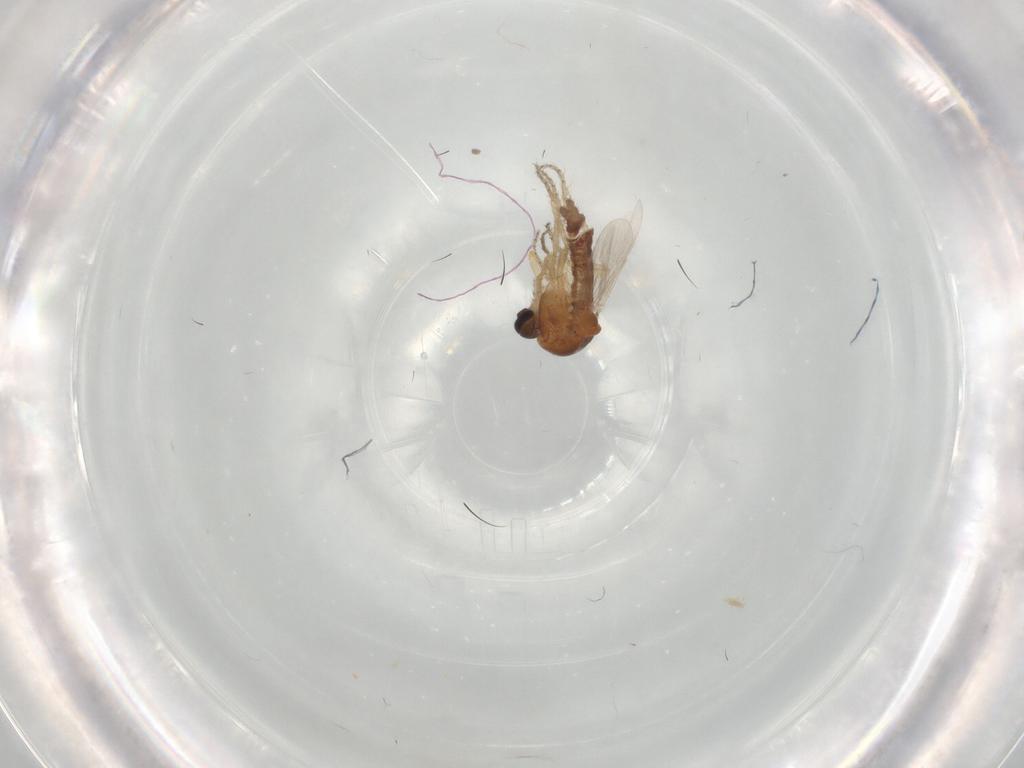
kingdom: Animalia
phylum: Arthropoda
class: Insecta
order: Diptera
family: Ceratopogonidae
